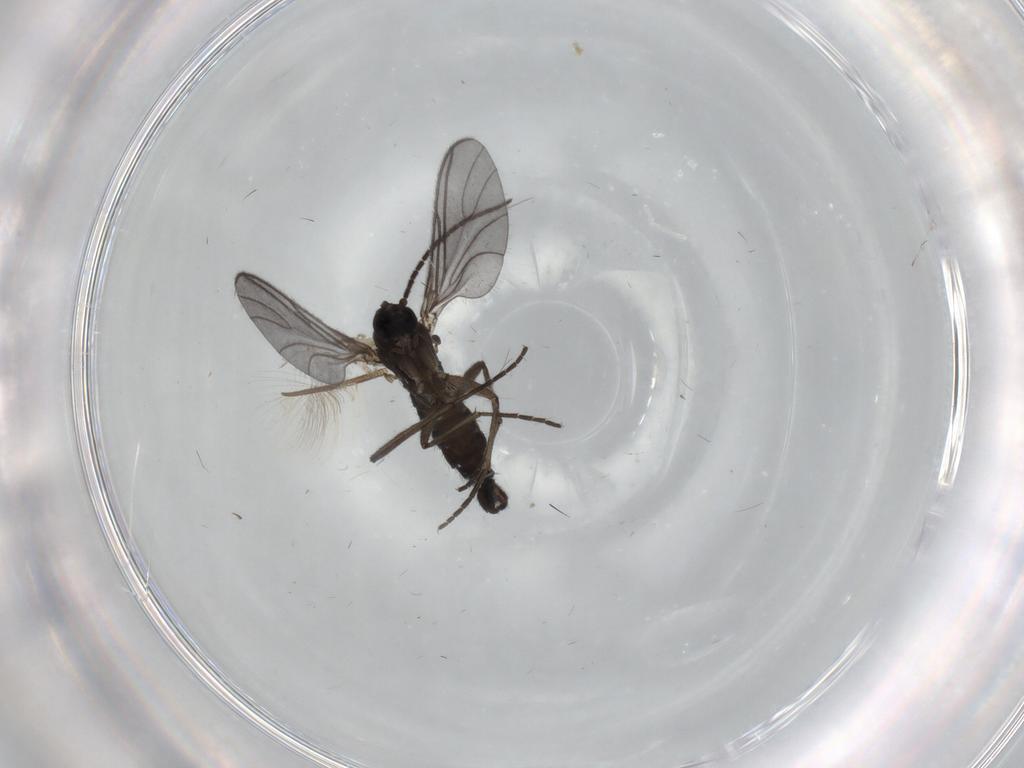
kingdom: Animalia
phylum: Arthropoda
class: Insecta
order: Diptera
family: Syrphidae
